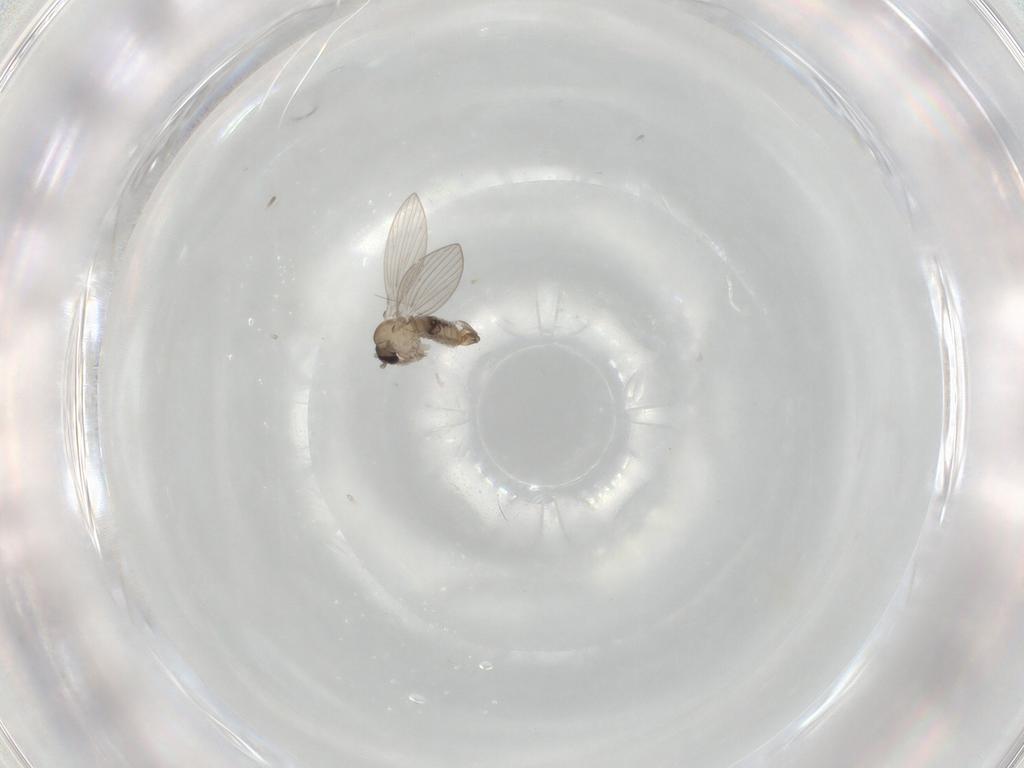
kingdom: Animalia
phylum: Arthropoda
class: Insecta
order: Diptera
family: Psychodidae
